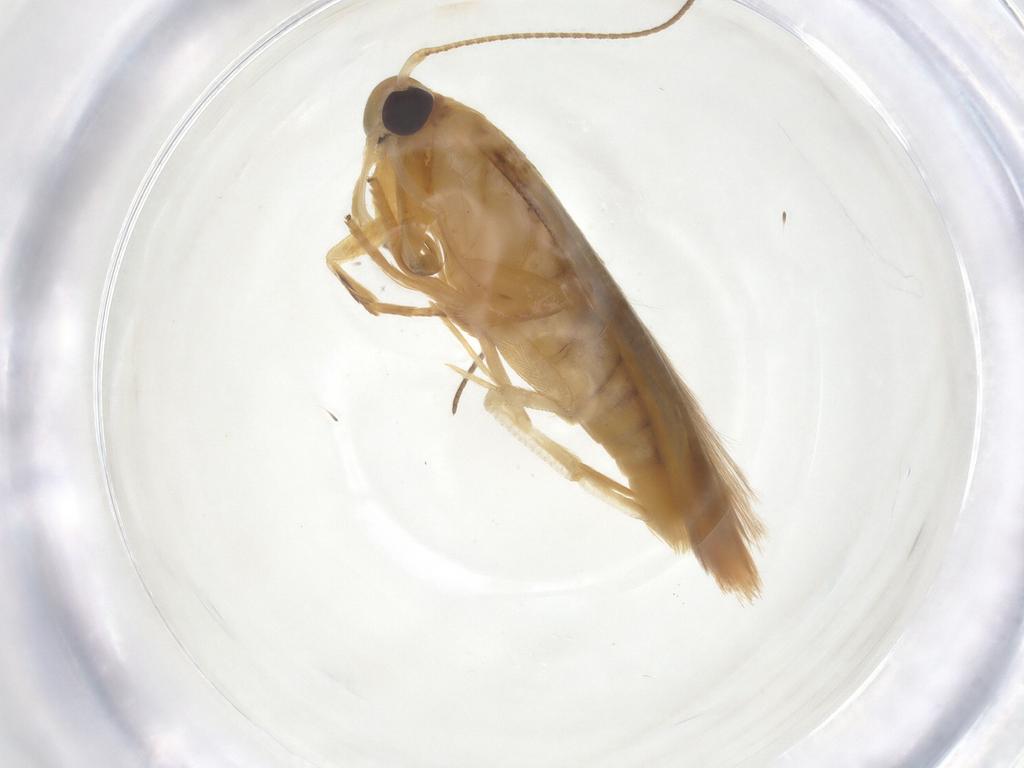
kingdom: Animalia
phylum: Arthropoda
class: Insecta
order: Lepidoptera
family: Stathmopodidae
